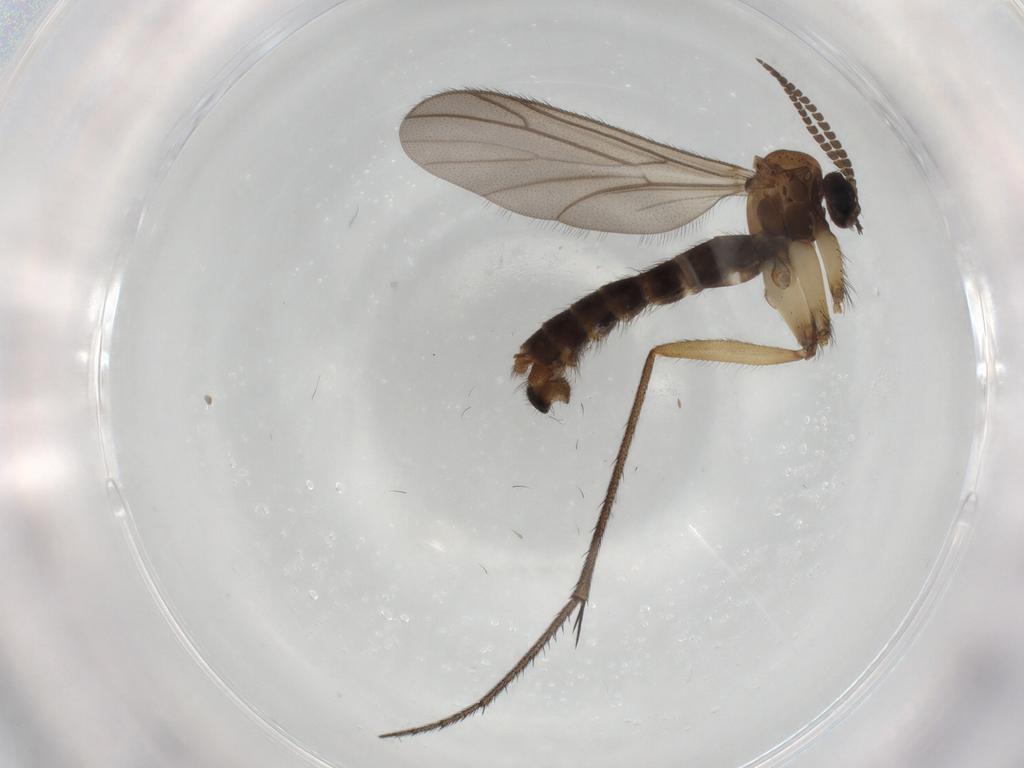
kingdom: Animalia
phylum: Arthropoda
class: Insecta
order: Diptera
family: Ditomyiidae
